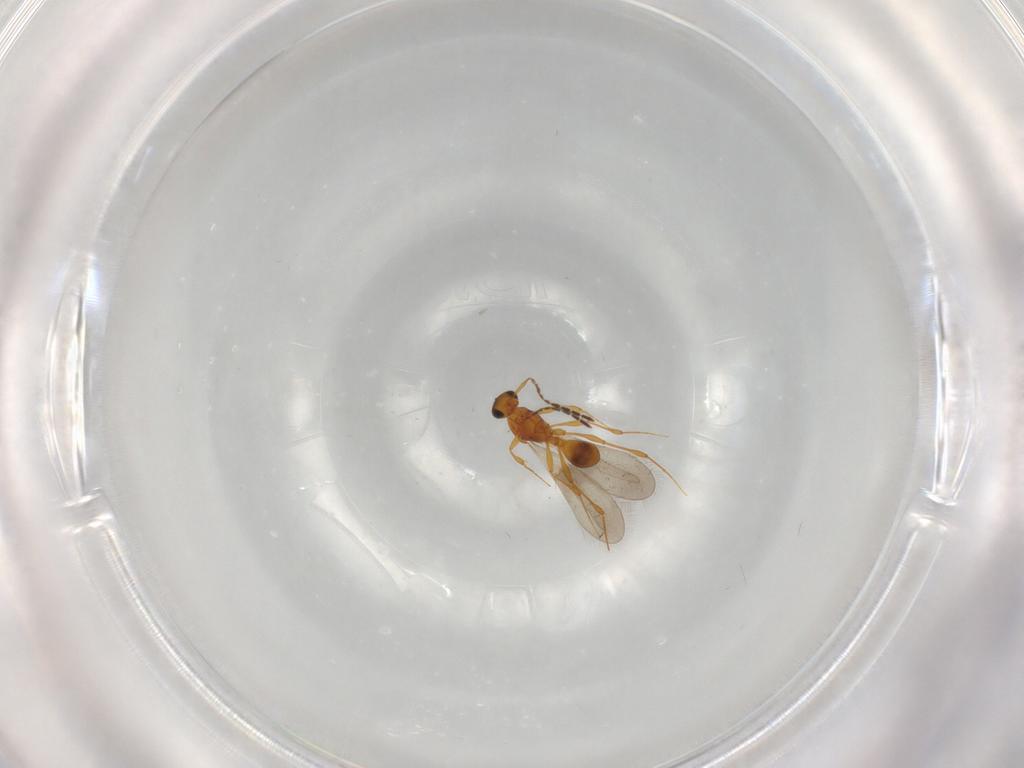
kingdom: Animalia
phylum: Arthropoda
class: Insecta
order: Hymenoptera
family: Platygastridae
